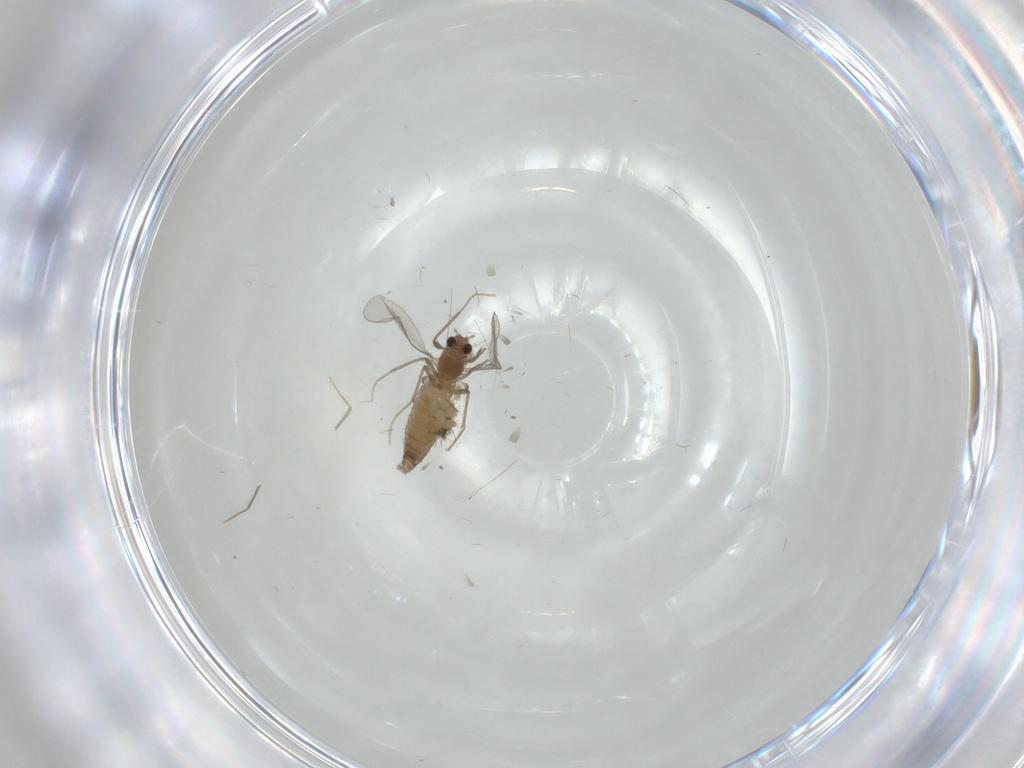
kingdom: Animalia
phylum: Arthropoda
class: Insecta
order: Diptera
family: Chironomidae
